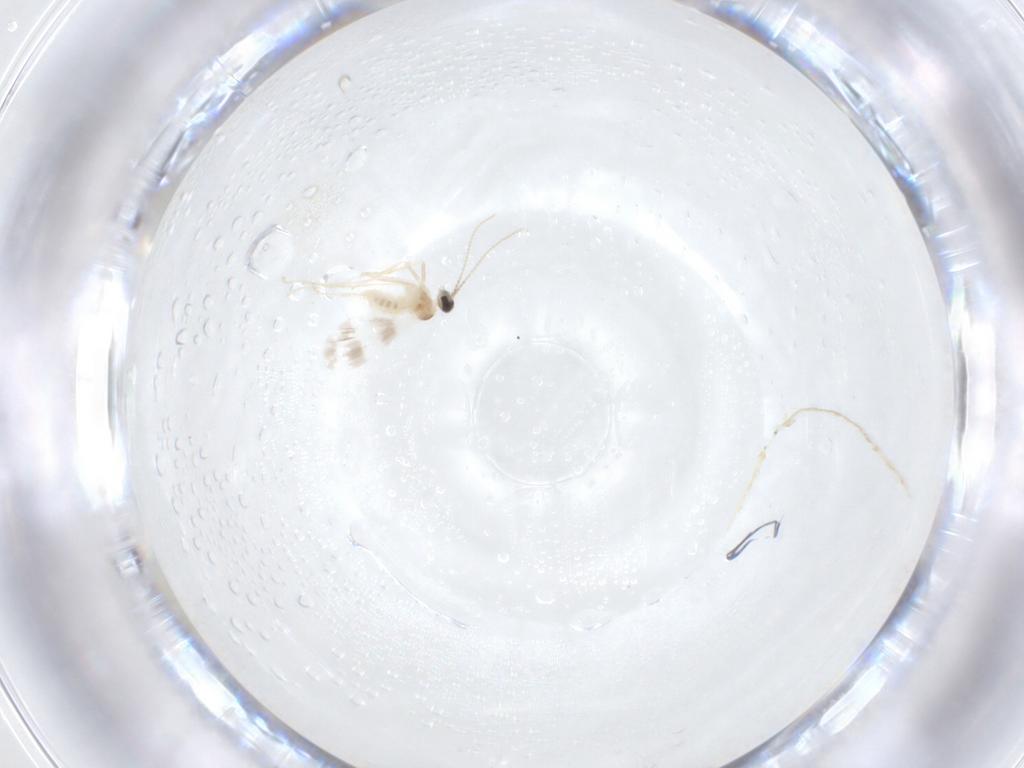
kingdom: Animalia
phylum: Arthropoda
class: Insecta
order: Diptera
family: Cecidomyiidae
